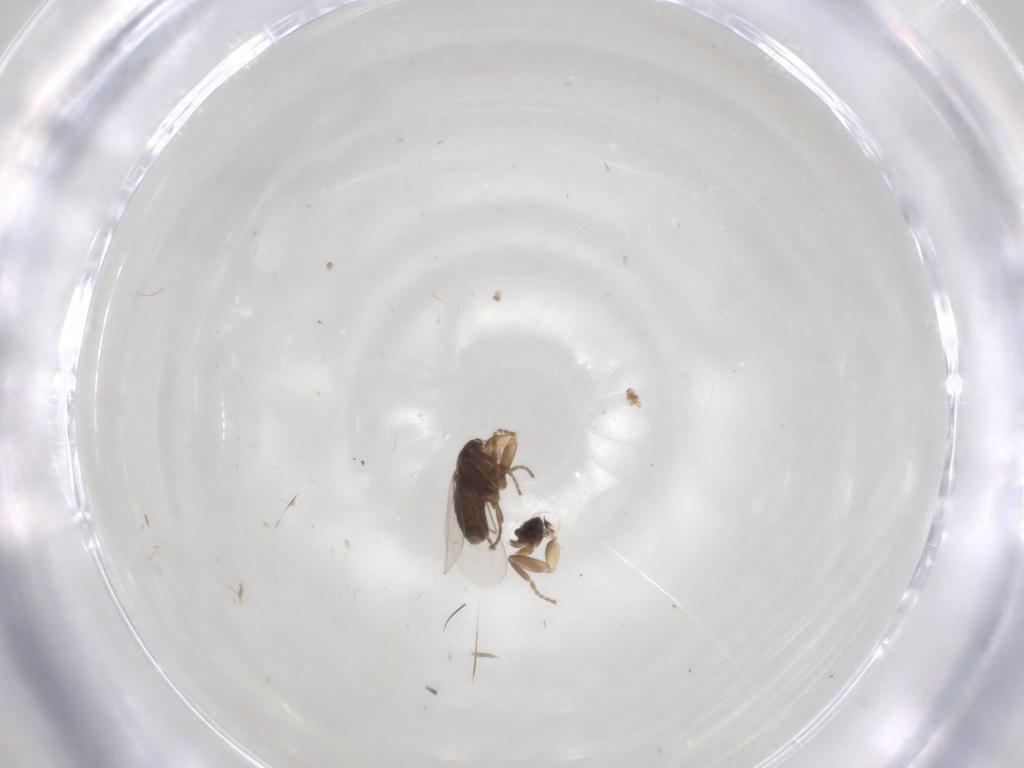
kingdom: Animalia
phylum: Arthropoda
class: Insecta
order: Diptera
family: Phoridae
